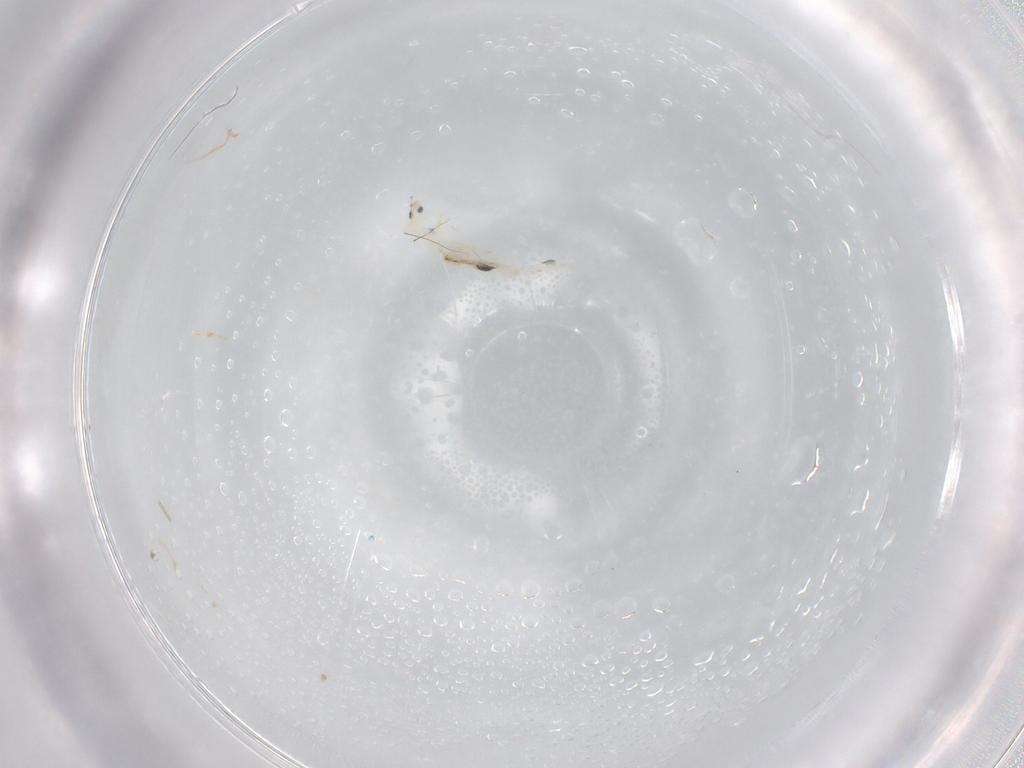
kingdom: Animalia
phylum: Arthropoda
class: Collembola
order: Entomobryomorpha
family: Entomobryidae
